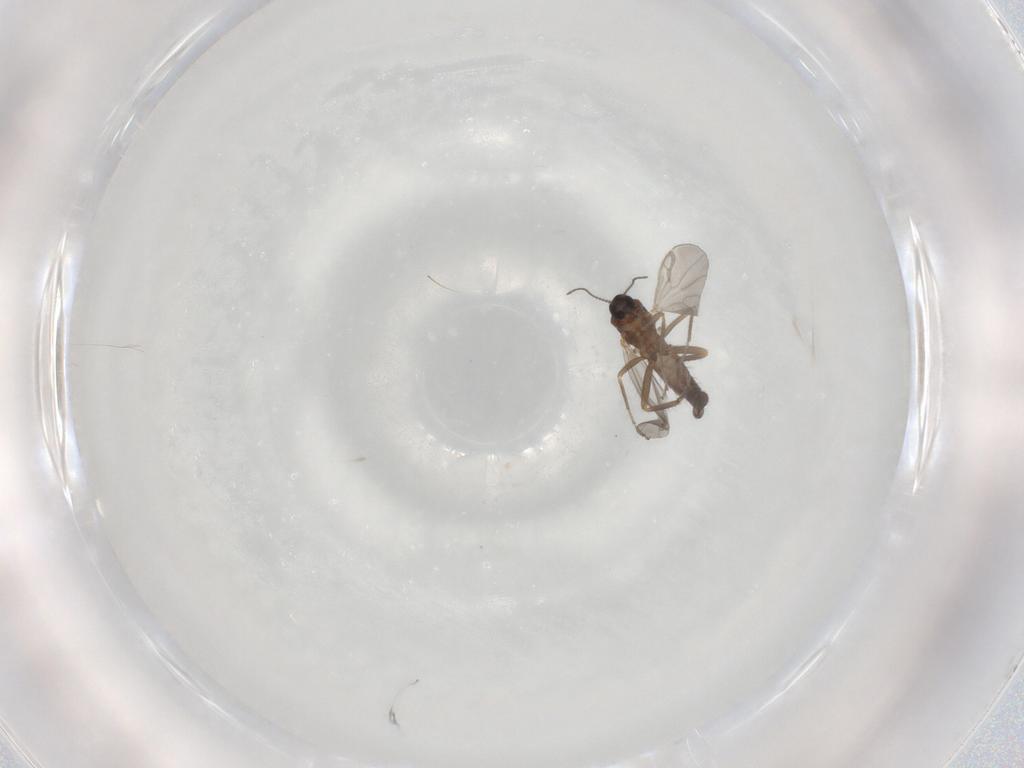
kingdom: Animalia
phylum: Arthropoda
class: Insecta
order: Diptera
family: Ceratopogonidae
